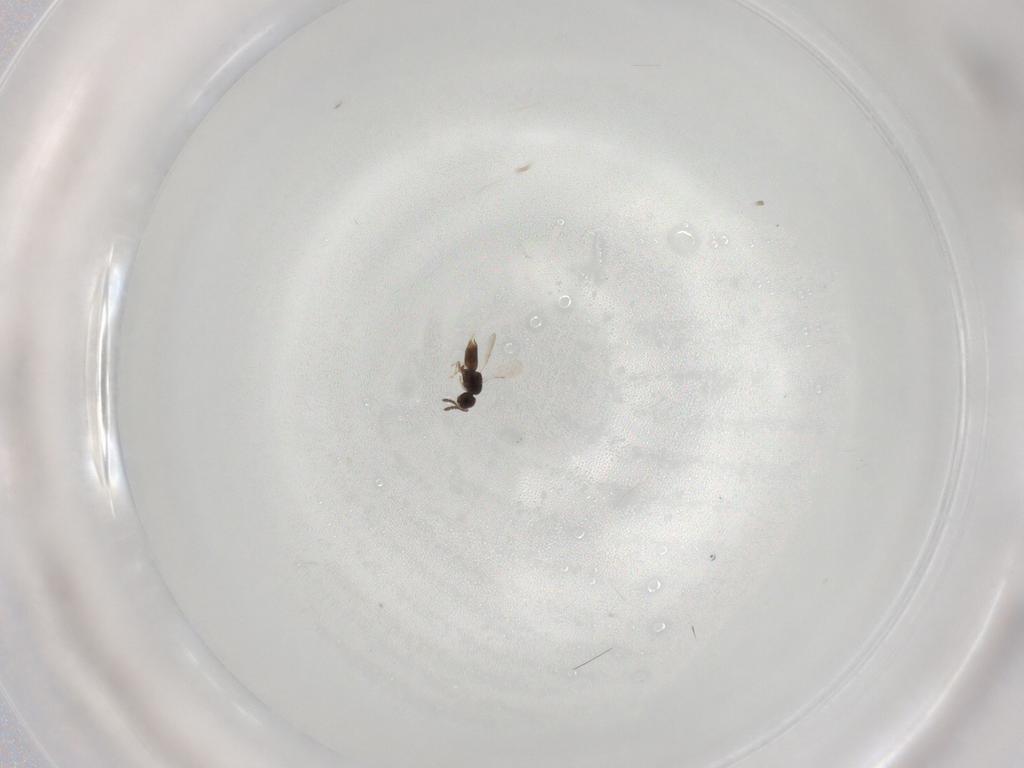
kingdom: Animalia
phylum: Arthropoda
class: Insecta
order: Hymenoptera
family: Ceraphronidae
